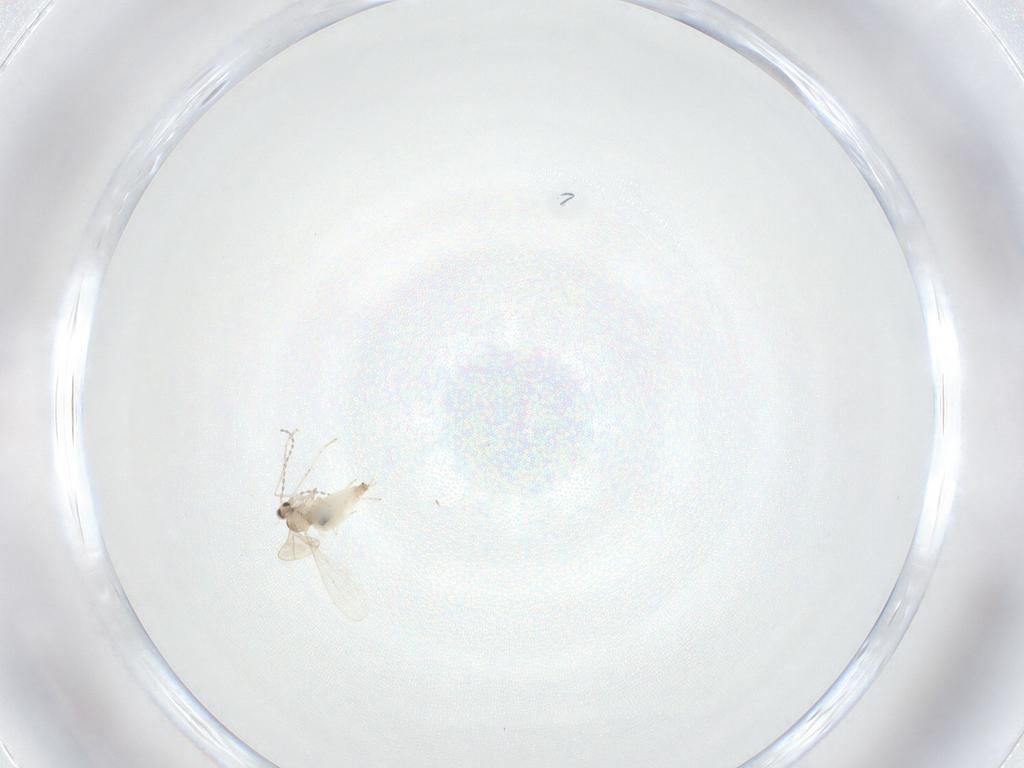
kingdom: Animalia
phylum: Arthropoda
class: Insecta
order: Diptera
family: Cecidomyiidae
